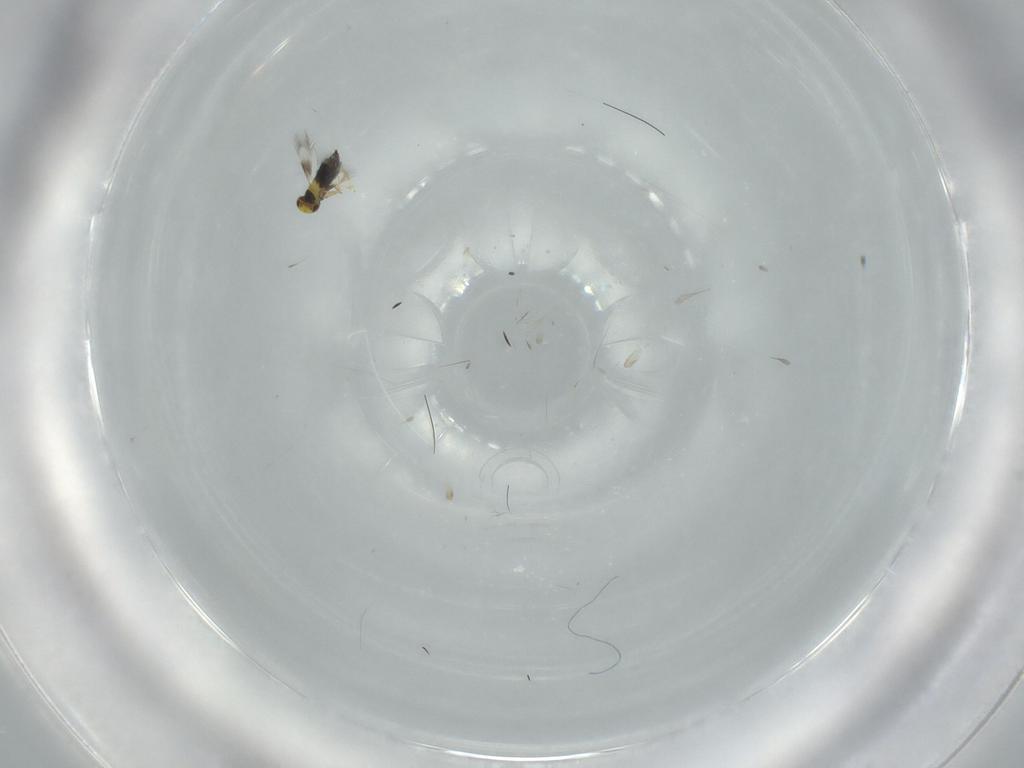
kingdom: Animalia
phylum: Arthropoda
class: Insecta
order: Hymenoptera
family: Signiphoridae
